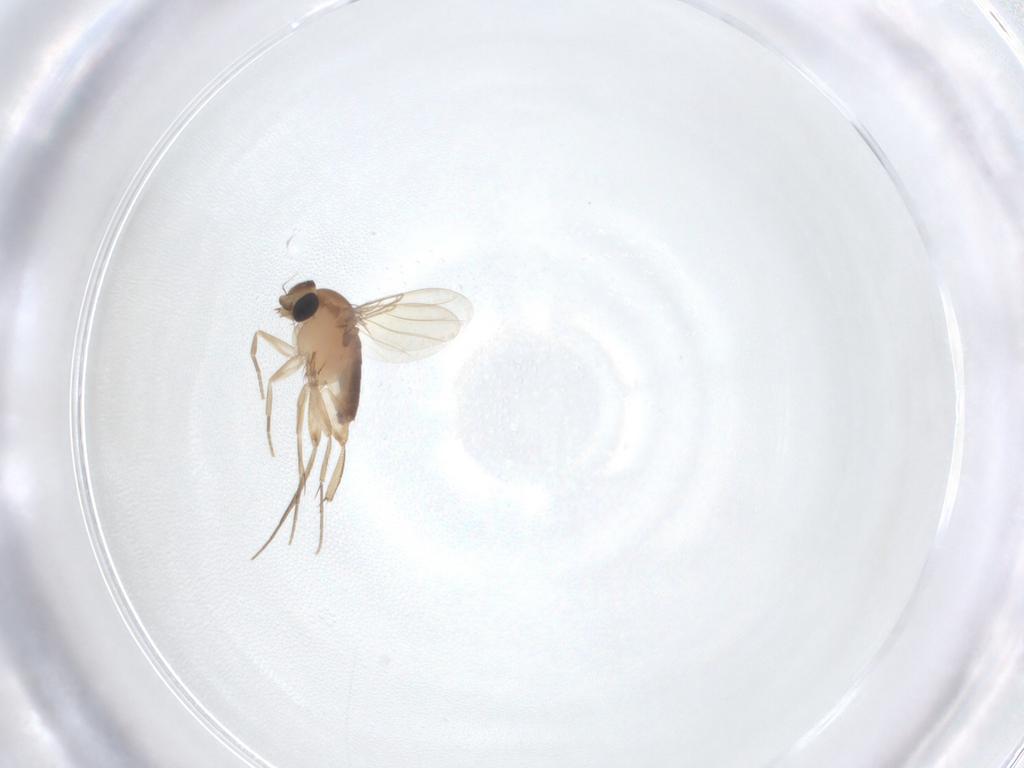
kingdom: Animalia
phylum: Arthropoda
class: Insecta
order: Diptera
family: Phoridae
